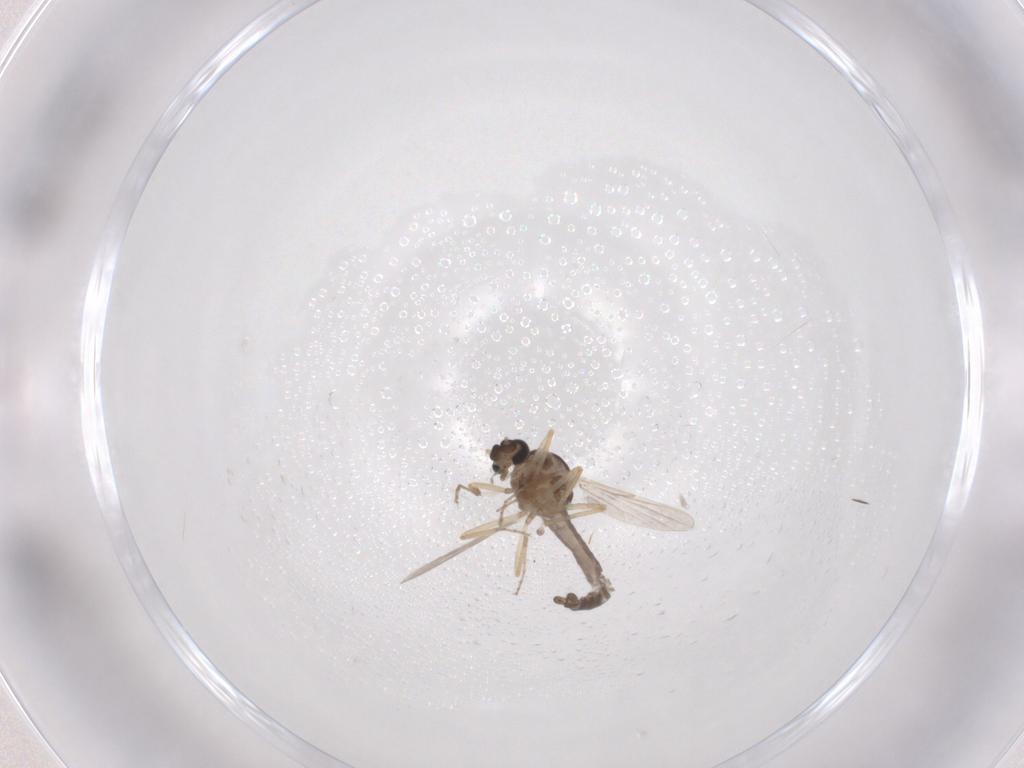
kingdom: Animalia
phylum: Arthropoda
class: Insecta
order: Diptera
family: Ceratopogonidae
